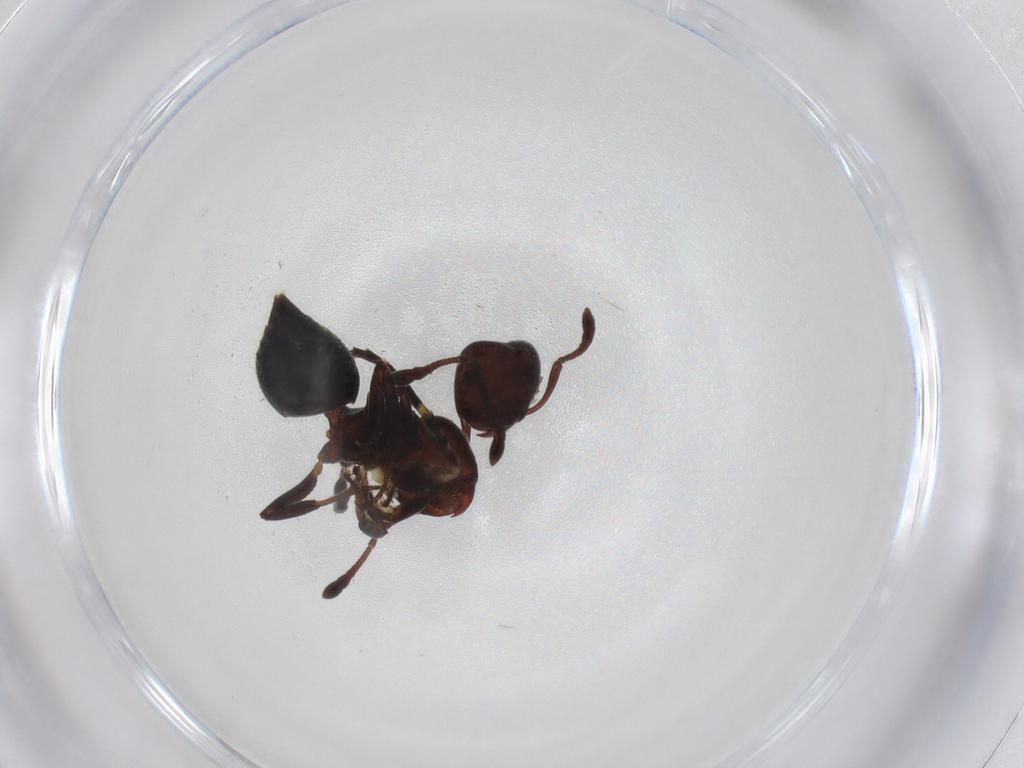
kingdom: Animalia
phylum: Arthropoda
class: Insecta
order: Hymenoptera
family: Formicidae
